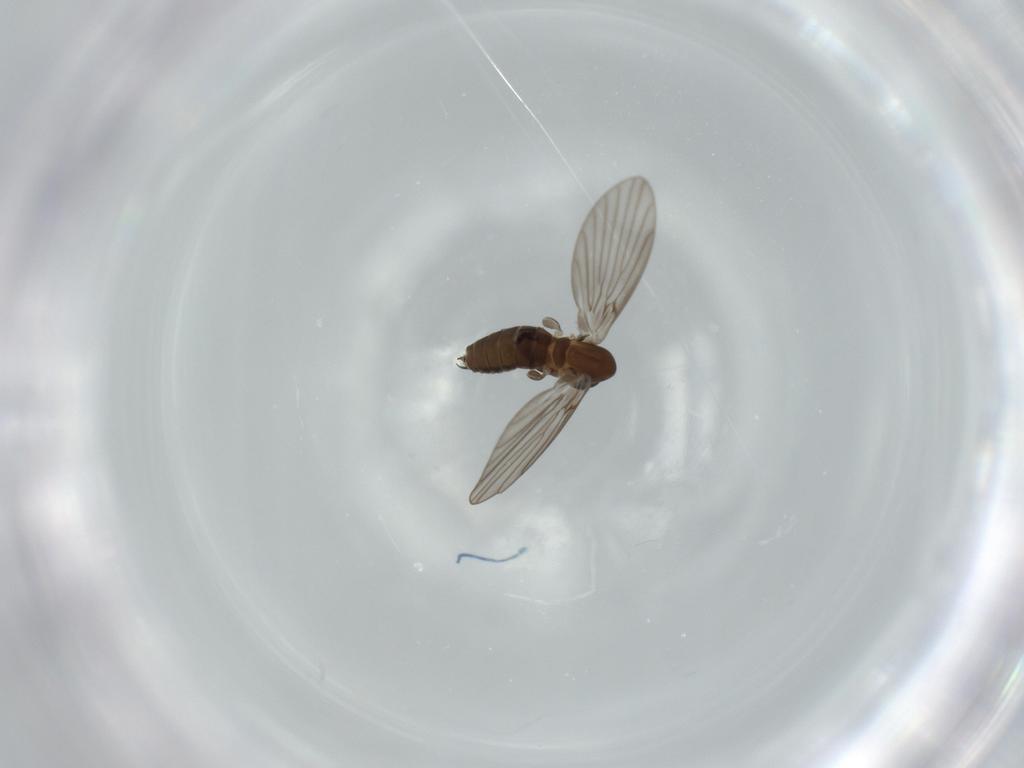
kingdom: Animalia
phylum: Arthropoda
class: Insecta
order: Diptera
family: Psychodidae
